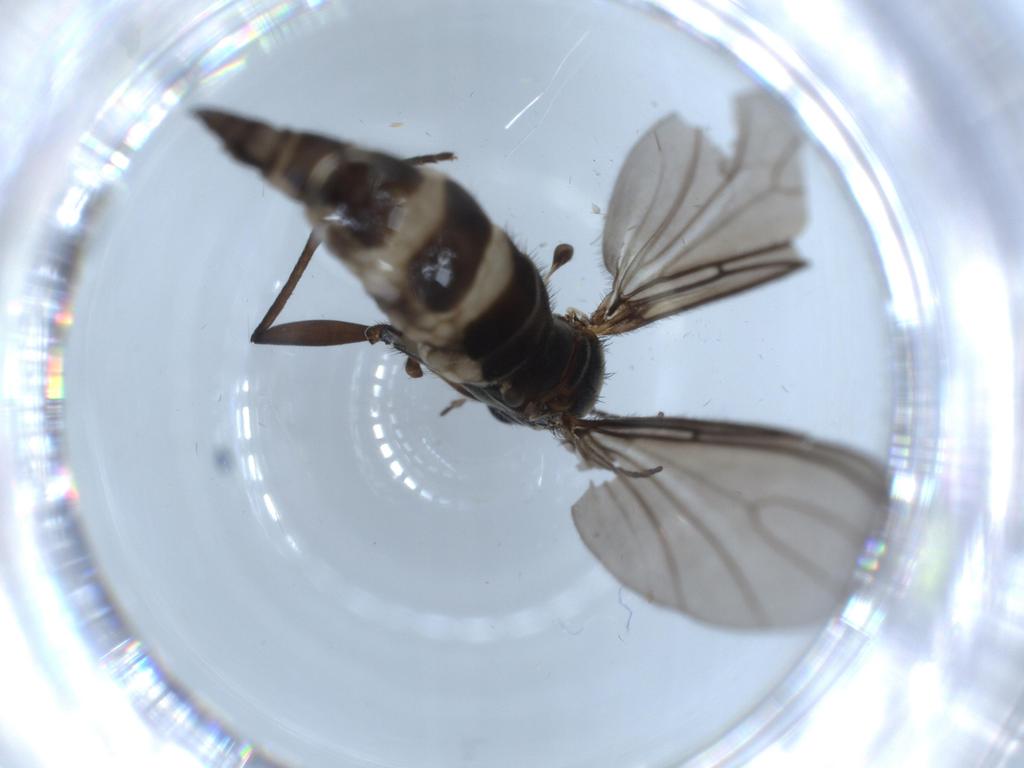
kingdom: Animalia
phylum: Arthropoda
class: Insecta
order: Diptera
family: Sciaridae
